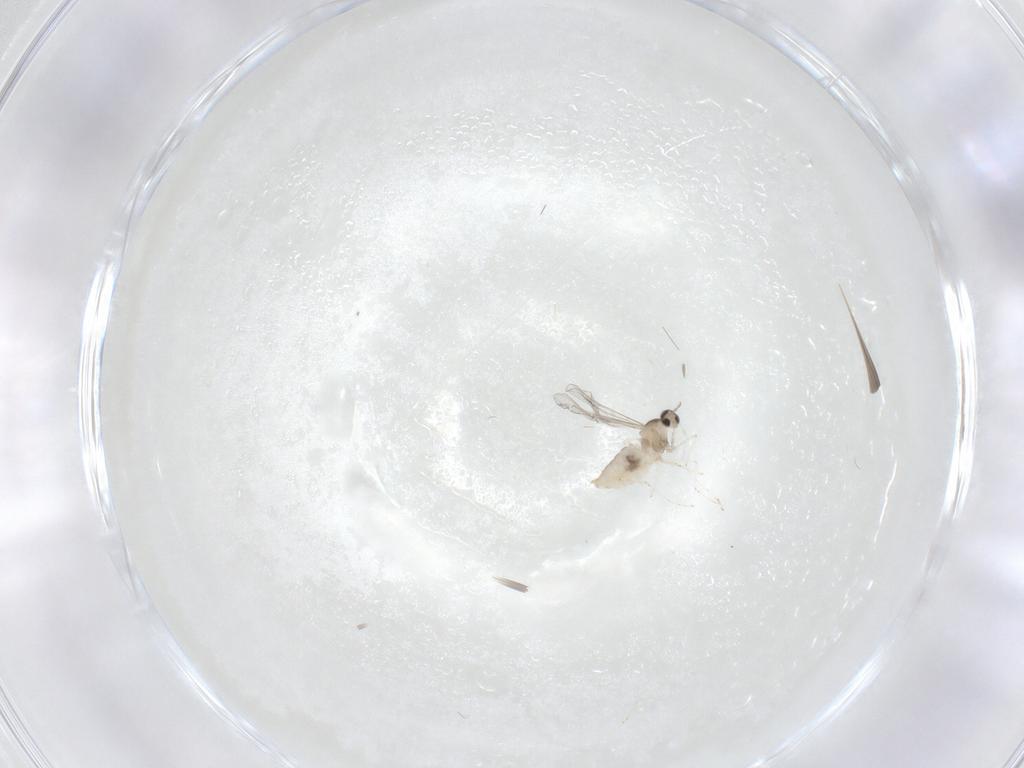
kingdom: Animalia
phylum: Arthropoda
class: Insecta
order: Diptera
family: Cecidomyiidae
